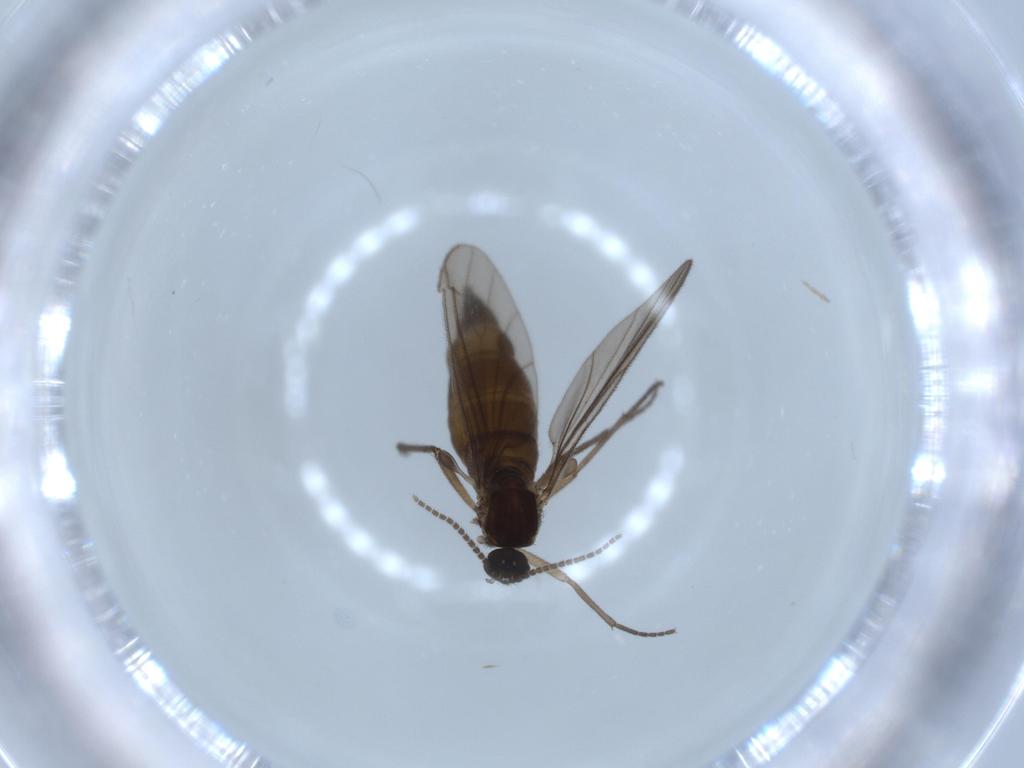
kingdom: Animalia
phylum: Arthropoda
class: Insecta
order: Diptera
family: Sciaridae
